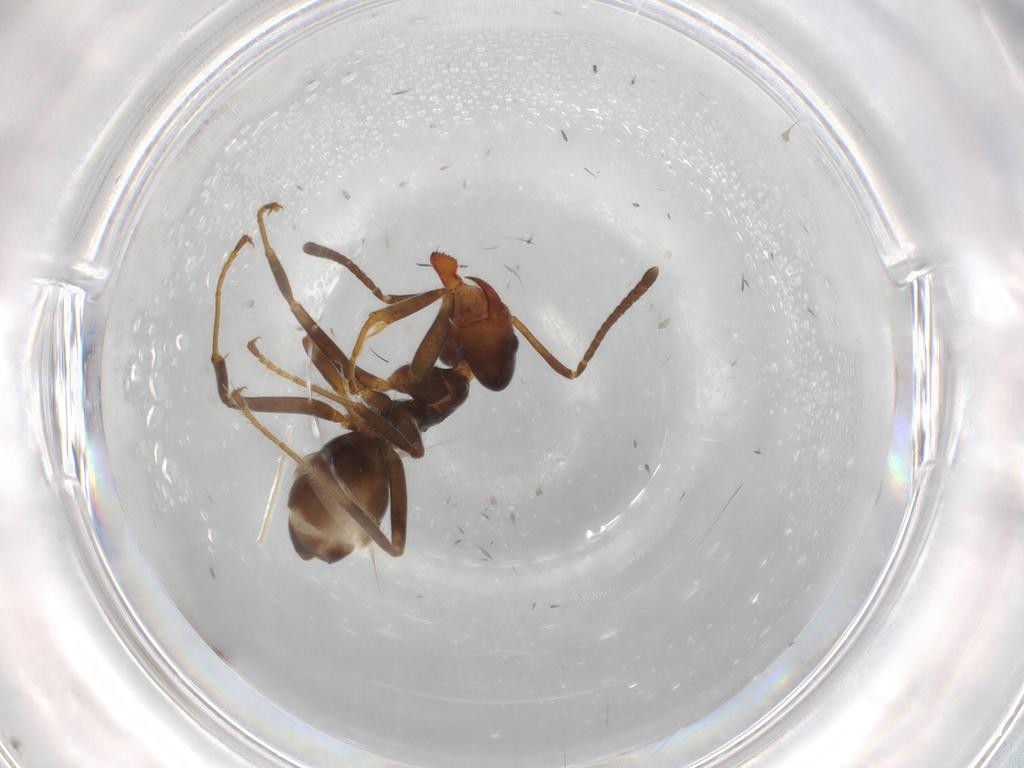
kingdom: Animalia
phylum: Arthropoda
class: Insecta
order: Hymenoptera
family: Formicidae
